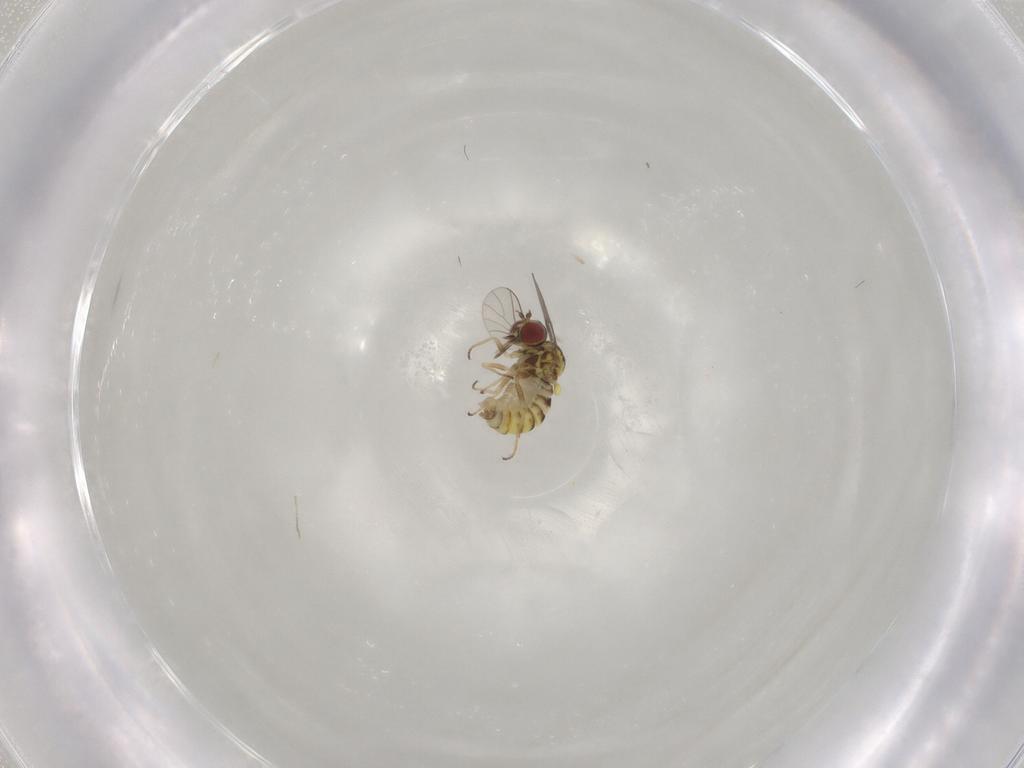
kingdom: Animalia
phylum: Arthropoda
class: Insecta
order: Diptera
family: Mythicomyiidae
